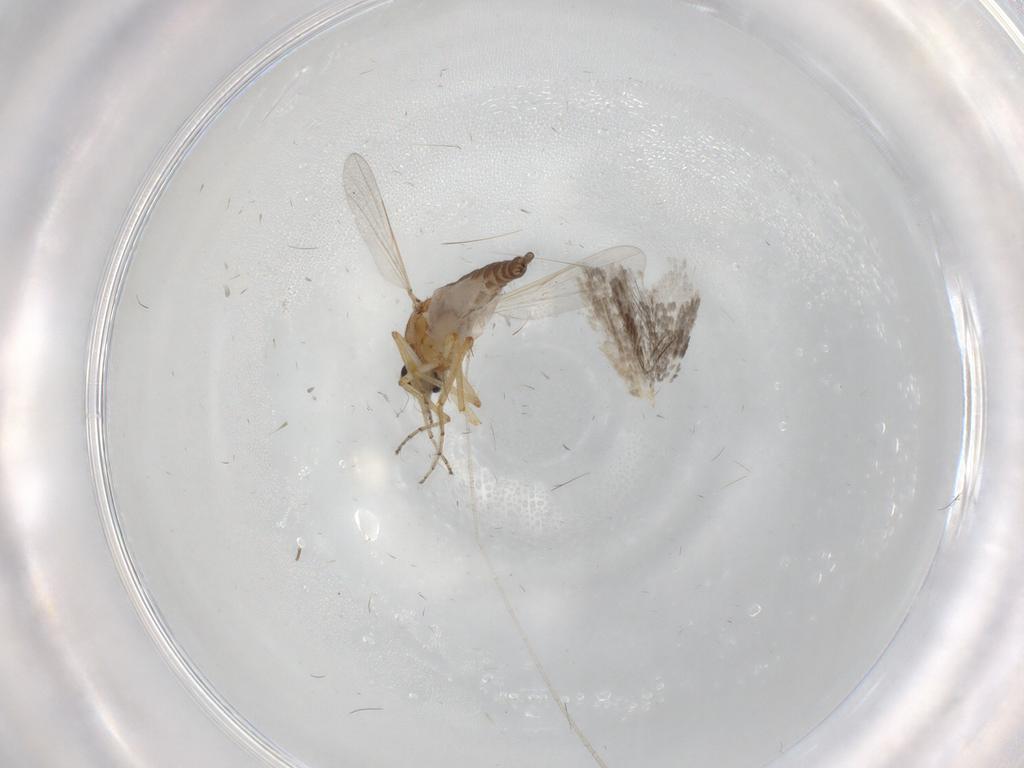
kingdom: Animalia
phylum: Arthropoda
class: Insecta
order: Diptera
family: Ceratopogonidae
